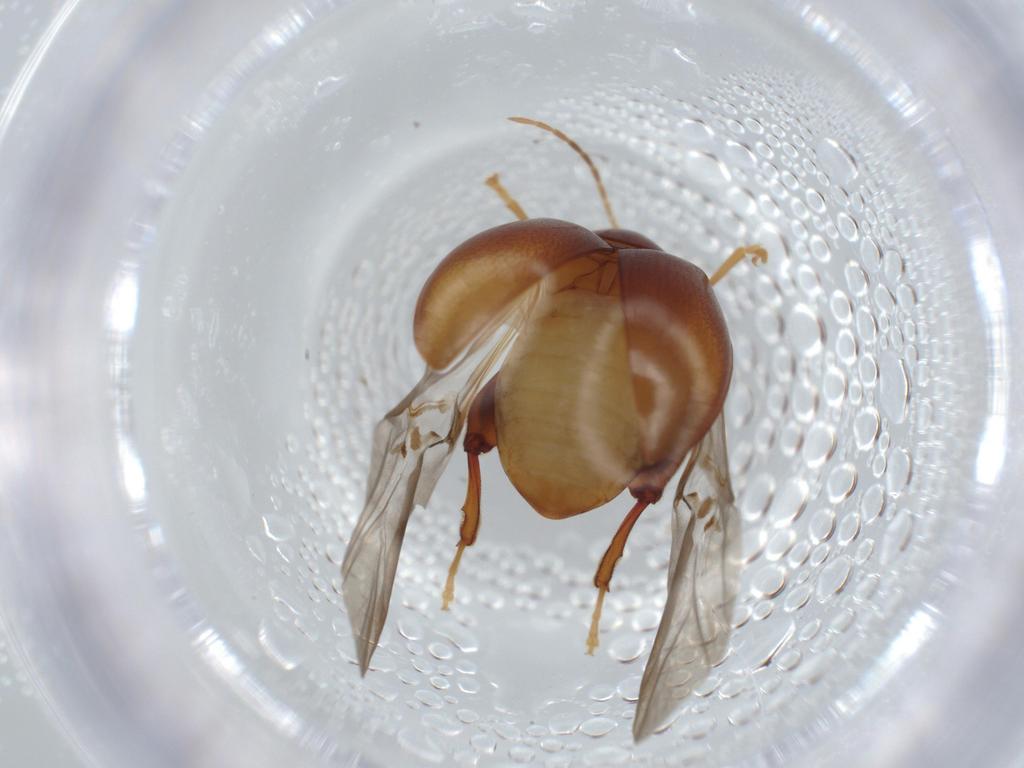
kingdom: Animalia
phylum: Arthropoda
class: Insecta
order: Coleoptera
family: Chrysomelidae
